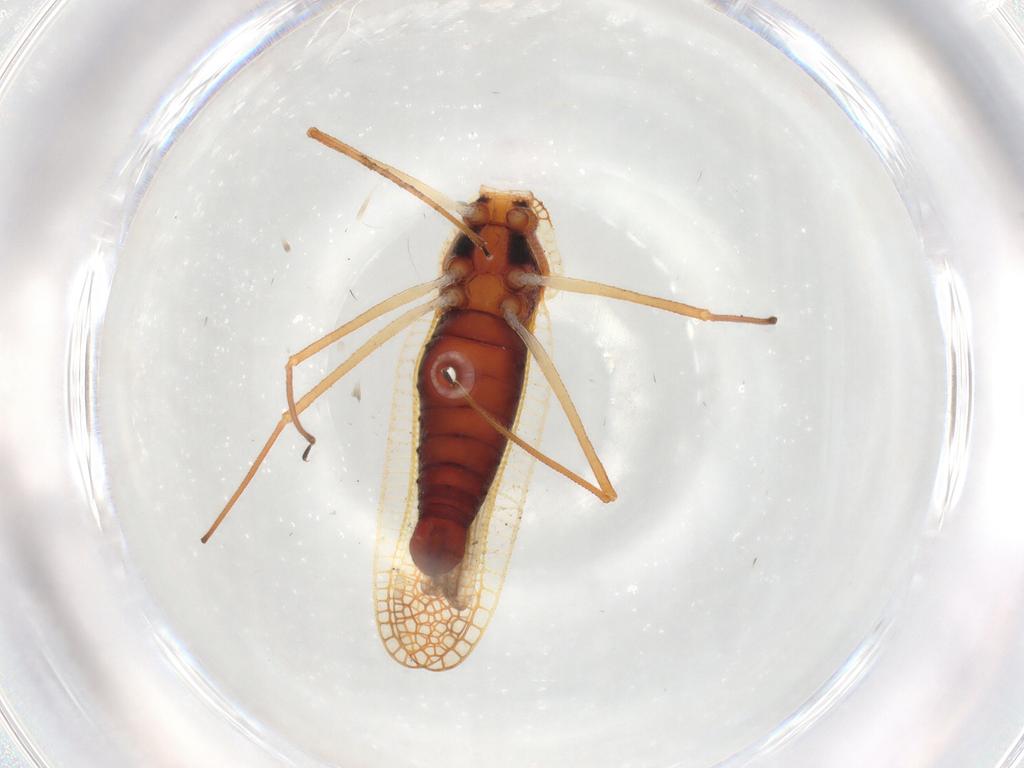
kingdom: Animalia
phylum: Arthropoda
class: Insecta
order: Hemiptera
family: Tingidae
